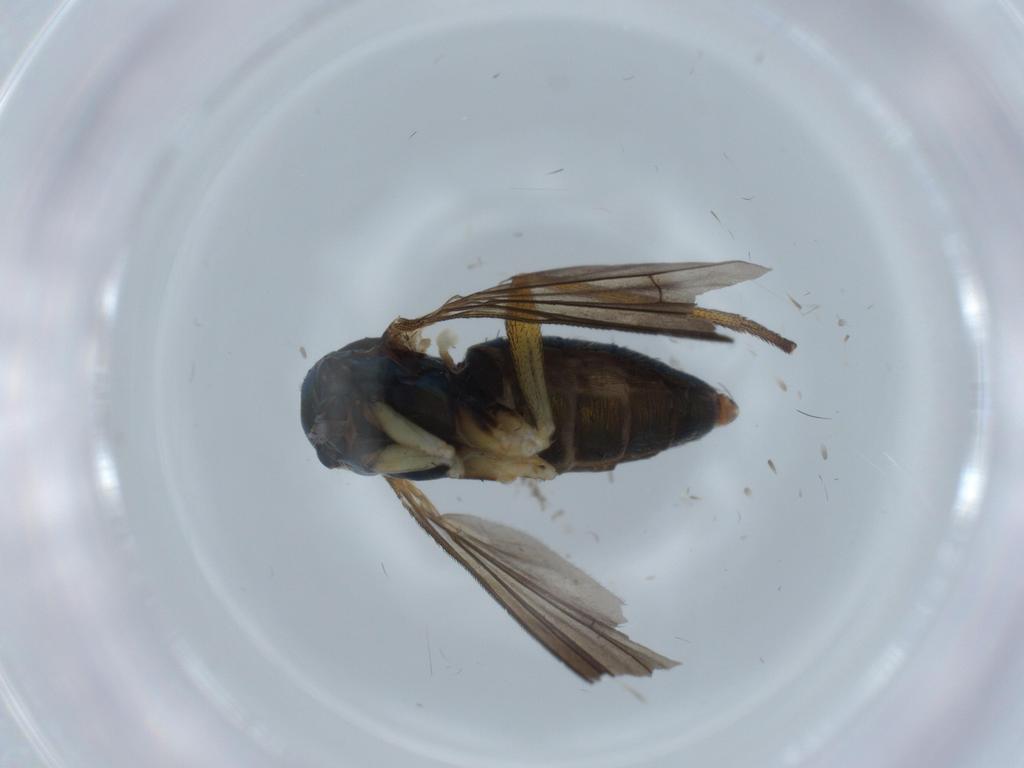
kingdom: Animalia
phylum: Arthropoda
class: Insecta
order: Diptera
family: Dolichopodidae
